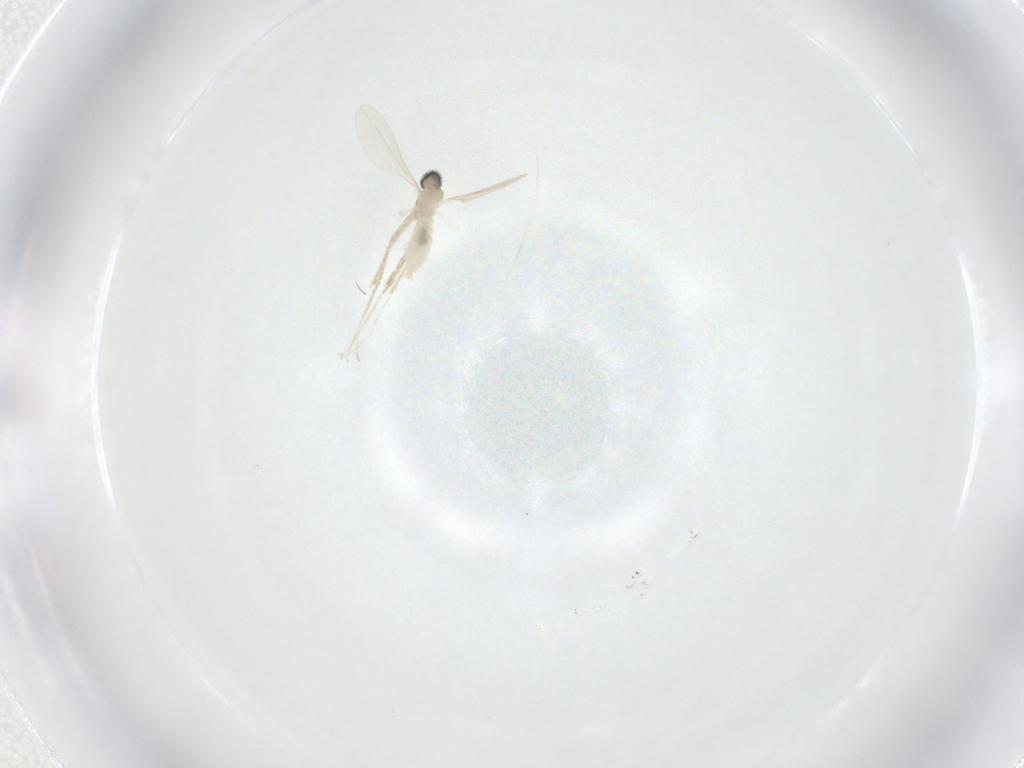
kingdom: Animalia
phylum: Arthropoda
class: Insecta
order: Diptera
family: Cecidomyiidae
